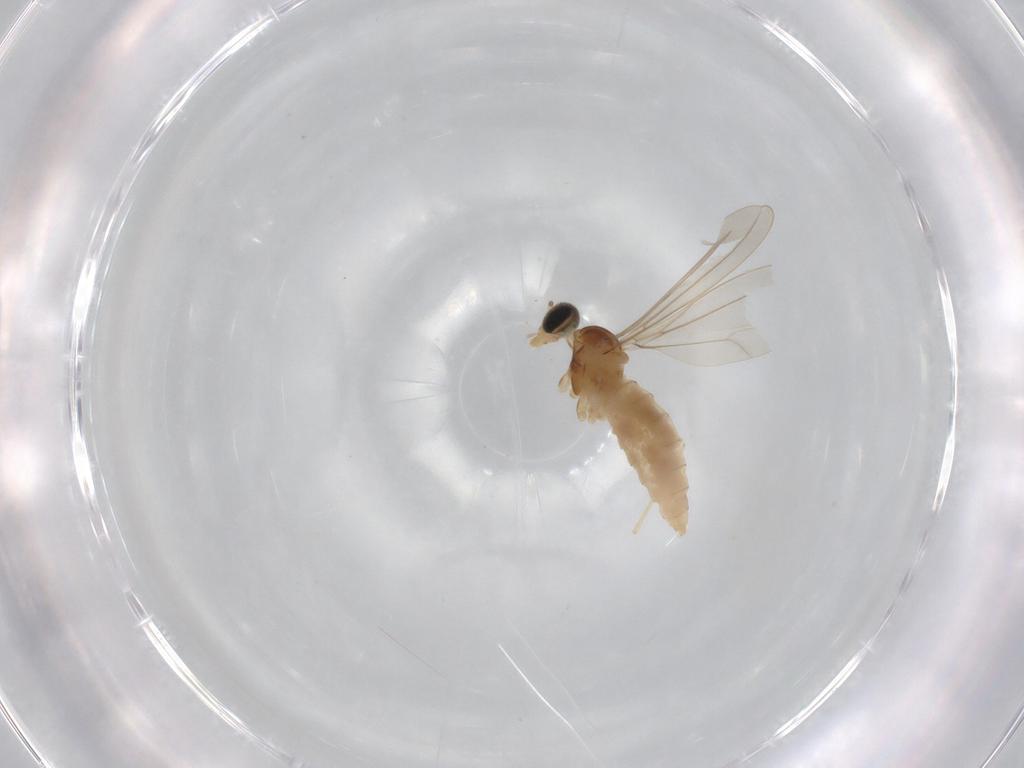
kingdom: Animalia
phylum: Arthropoda
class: Insecta
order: Diptera
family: Cecidomyiidae
